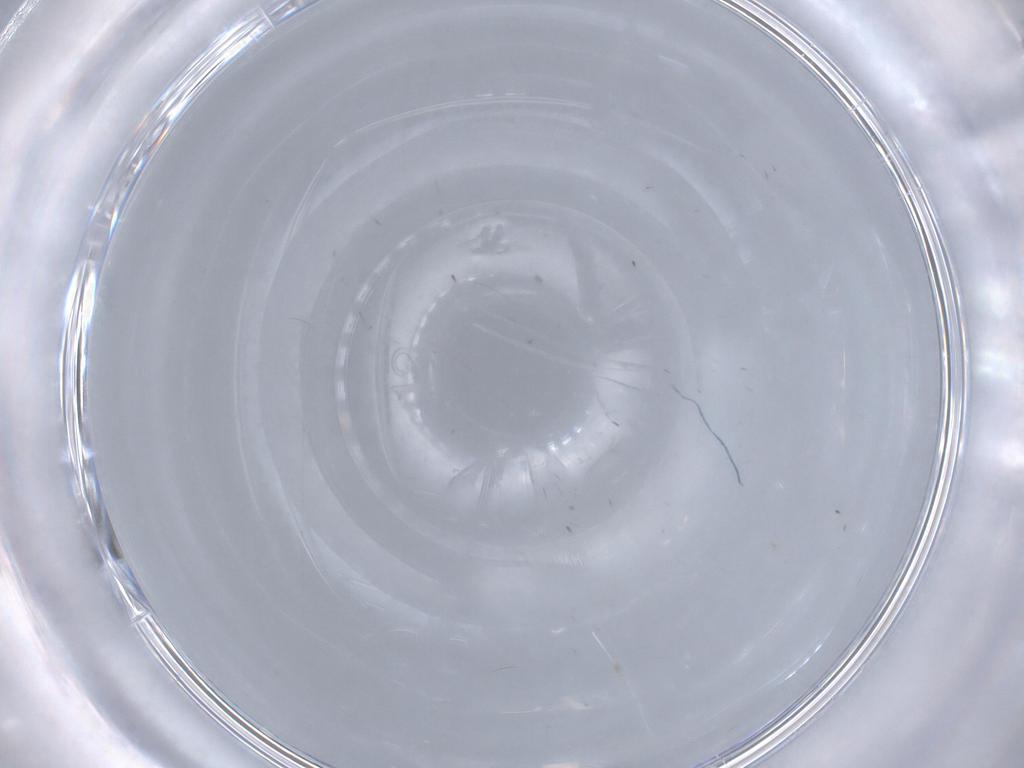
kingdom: Animalia
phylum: Arthropoda
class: Insecta
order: Diptera
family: Chironomidae
